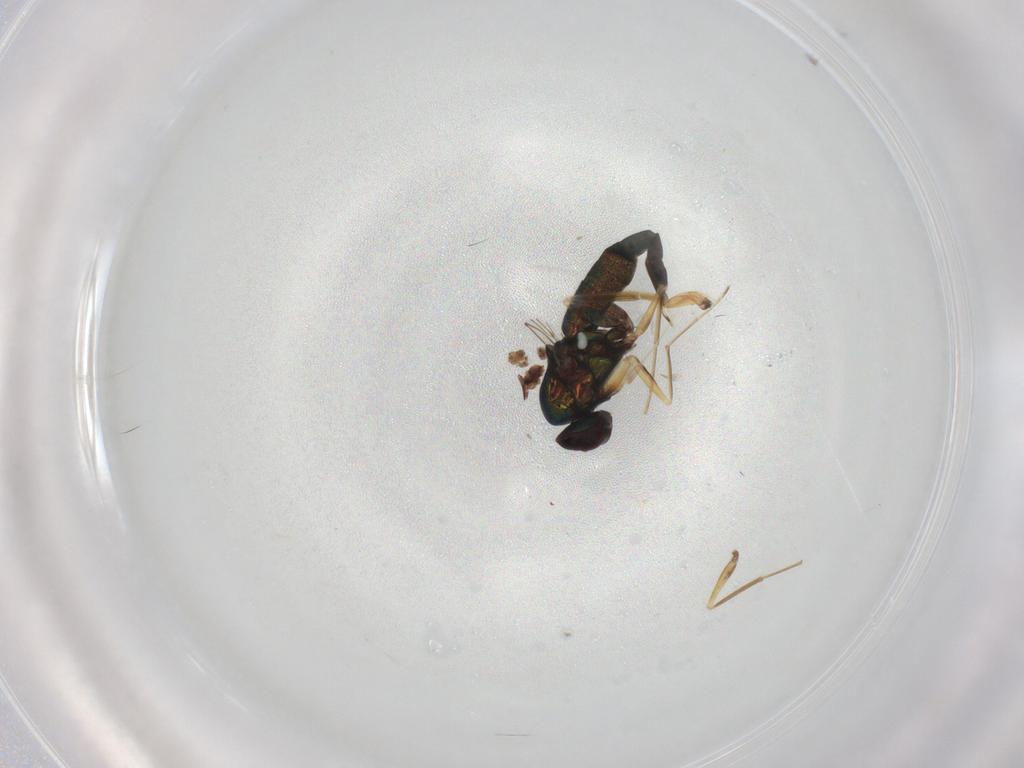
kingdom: Animalia
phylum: Arthropoda
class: Insecta
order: Diptera
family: Dolichopodidae
